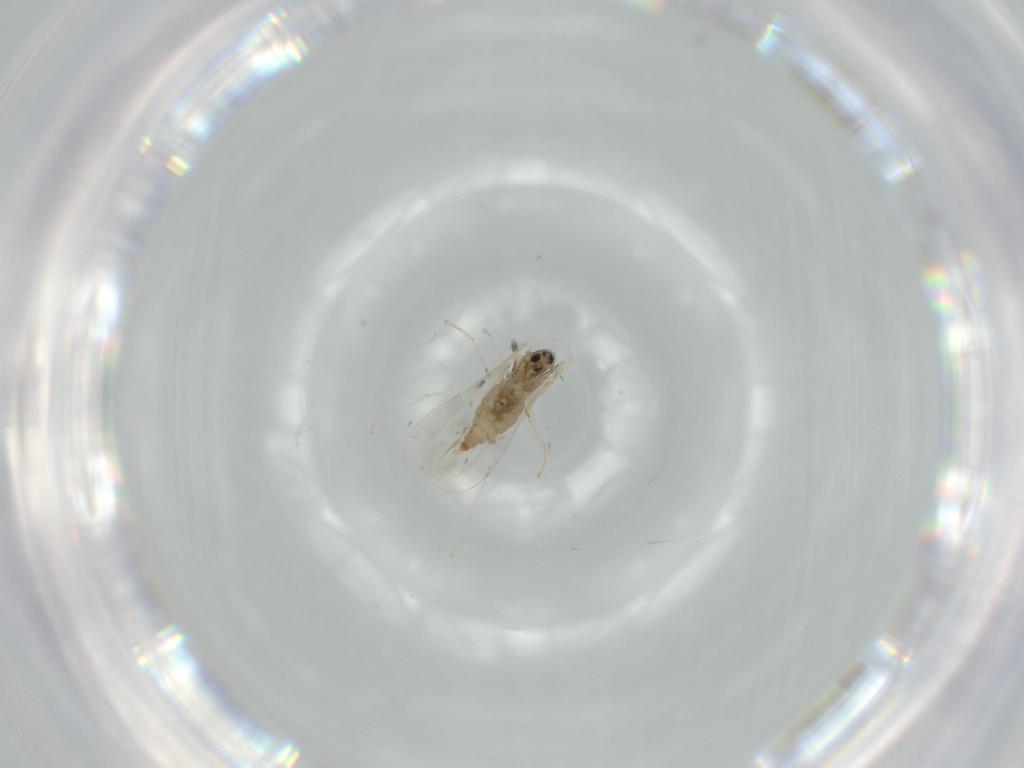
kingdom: Animalia
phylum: Arthropoda
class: Insecta
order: Diptera
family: Cecidomyiidae
